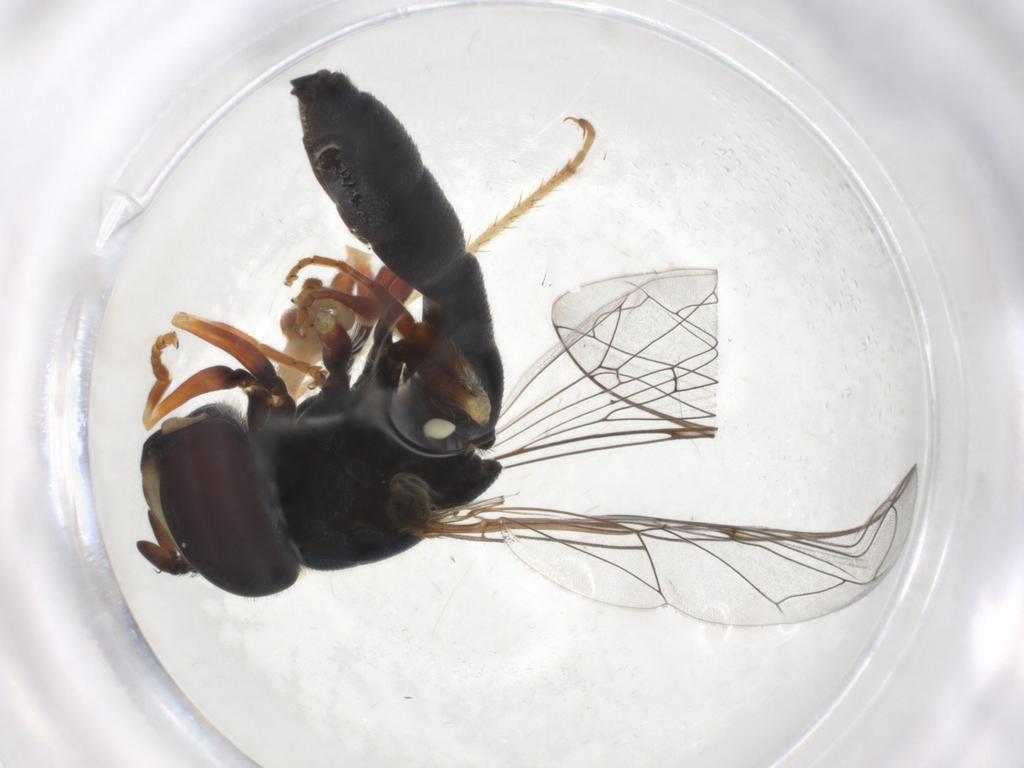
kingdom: Animalia
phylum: Arthropoda
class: Insecta
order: Diptera
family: Syrphidae
